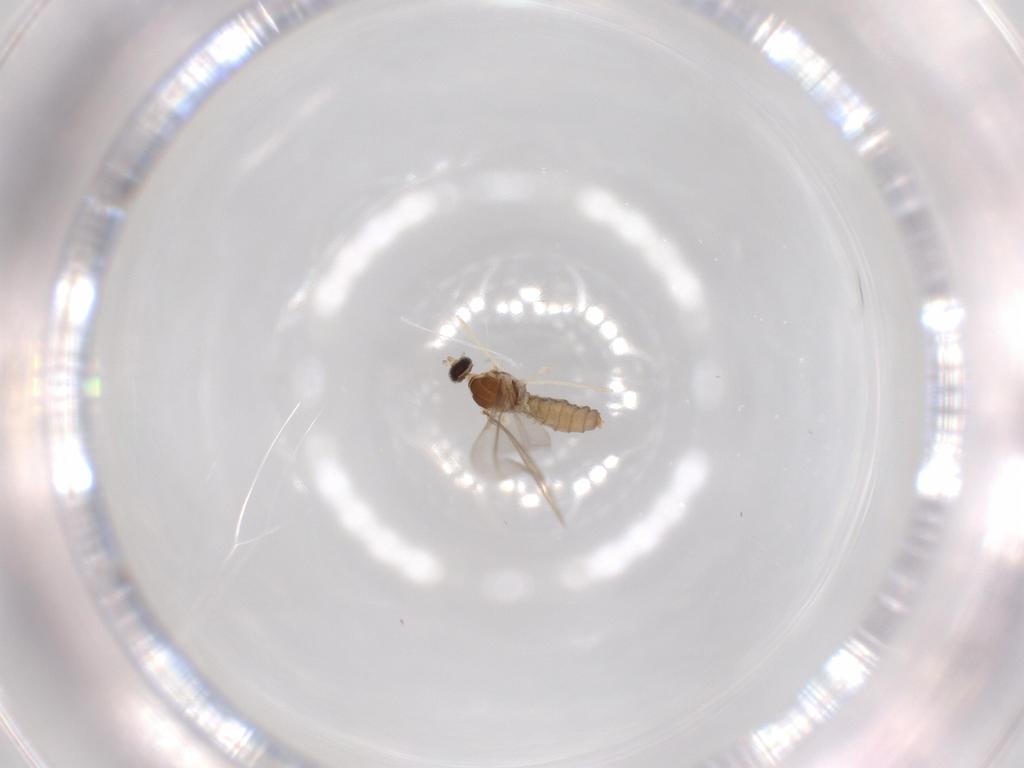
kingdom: Animalia
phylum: Arthropoda
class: Insecta
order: Diptera
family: Cecidomyiidae
